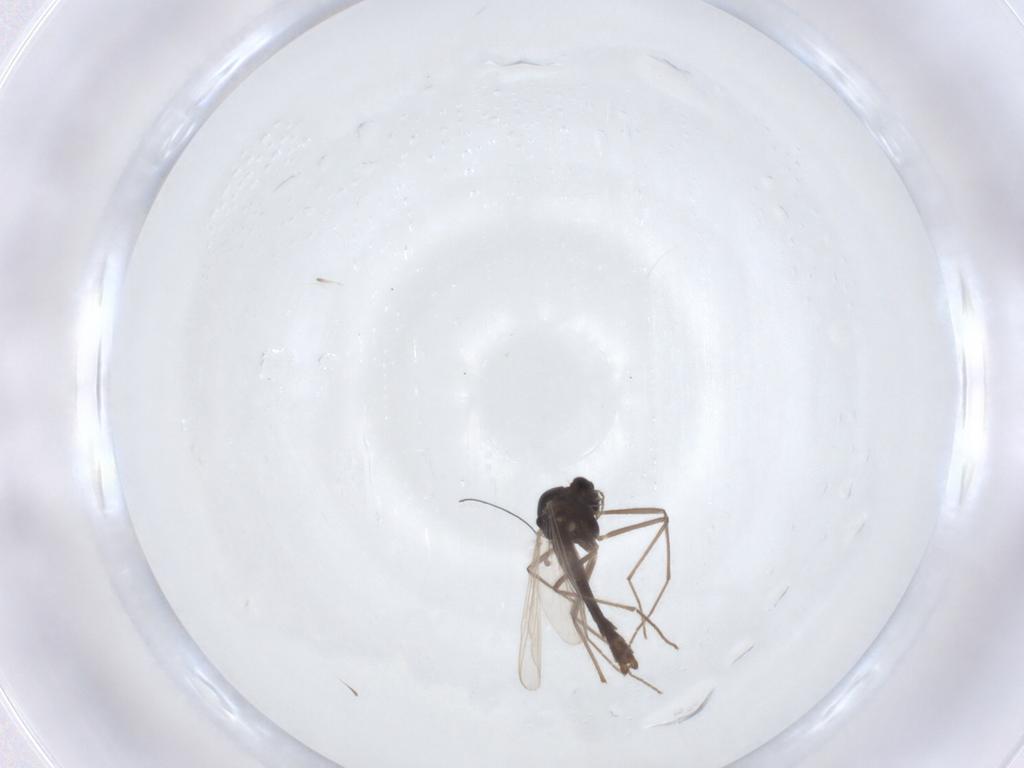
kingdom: Animalia
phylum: Arthropoda
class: Insecta
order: Diptera
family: Chironomidae
